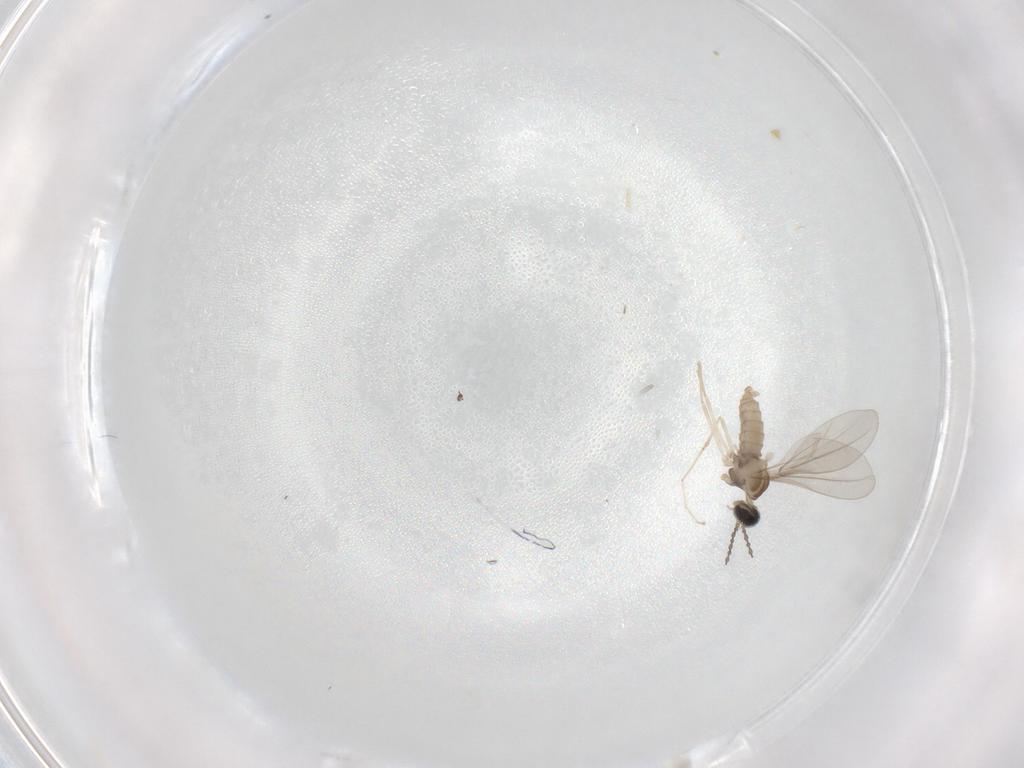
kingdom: Animalia
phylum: Arthropoda
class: Insecta
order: Diptera
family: Cecidomyiidae
